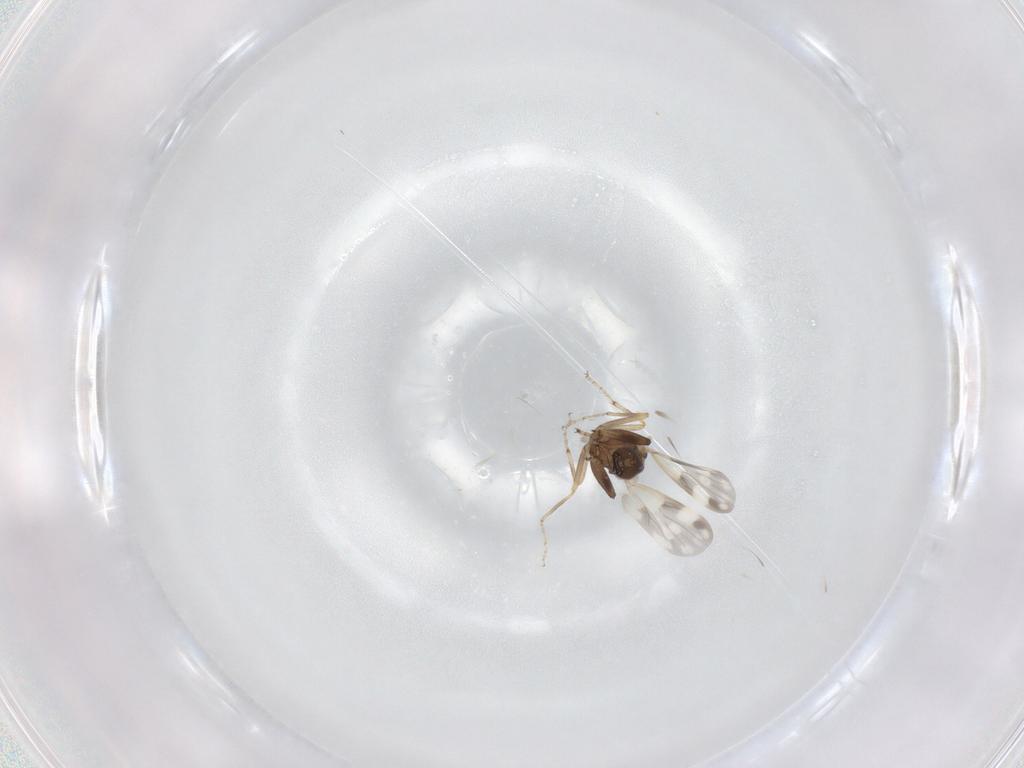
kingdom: Animalia
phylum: Arthropoda
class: Insecta
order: Diptera
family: Ceratopogonidae
